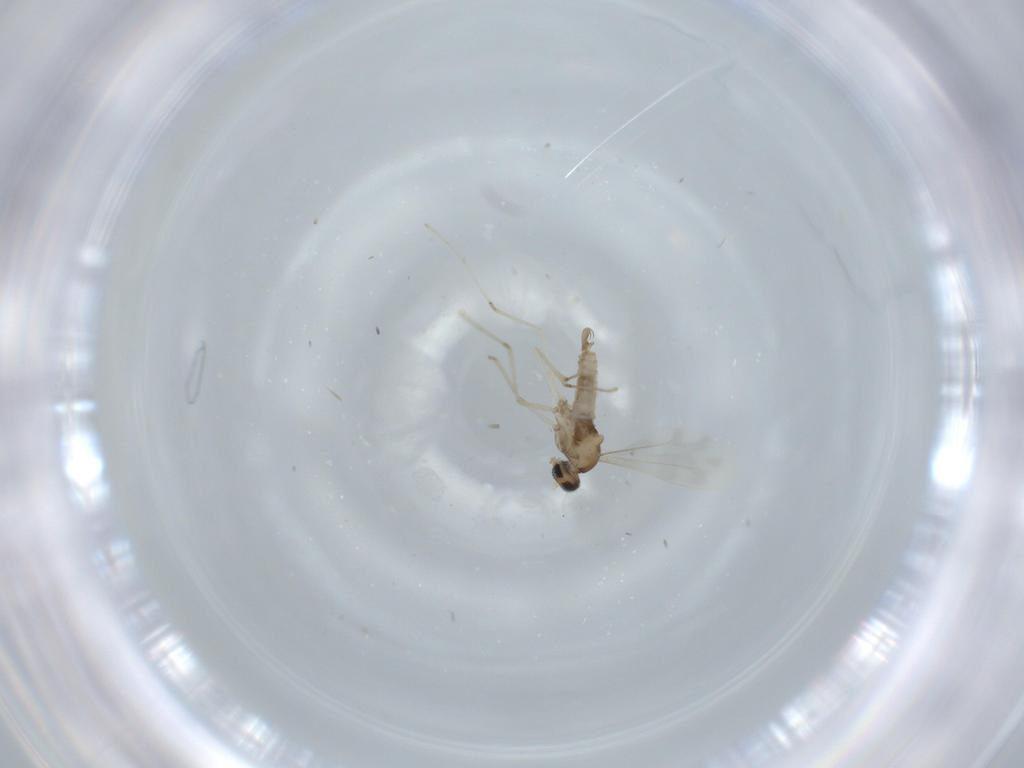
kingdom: Animalia
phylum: Arthropoda
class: Insecta
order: Diptera
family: Cecidomyiidae
